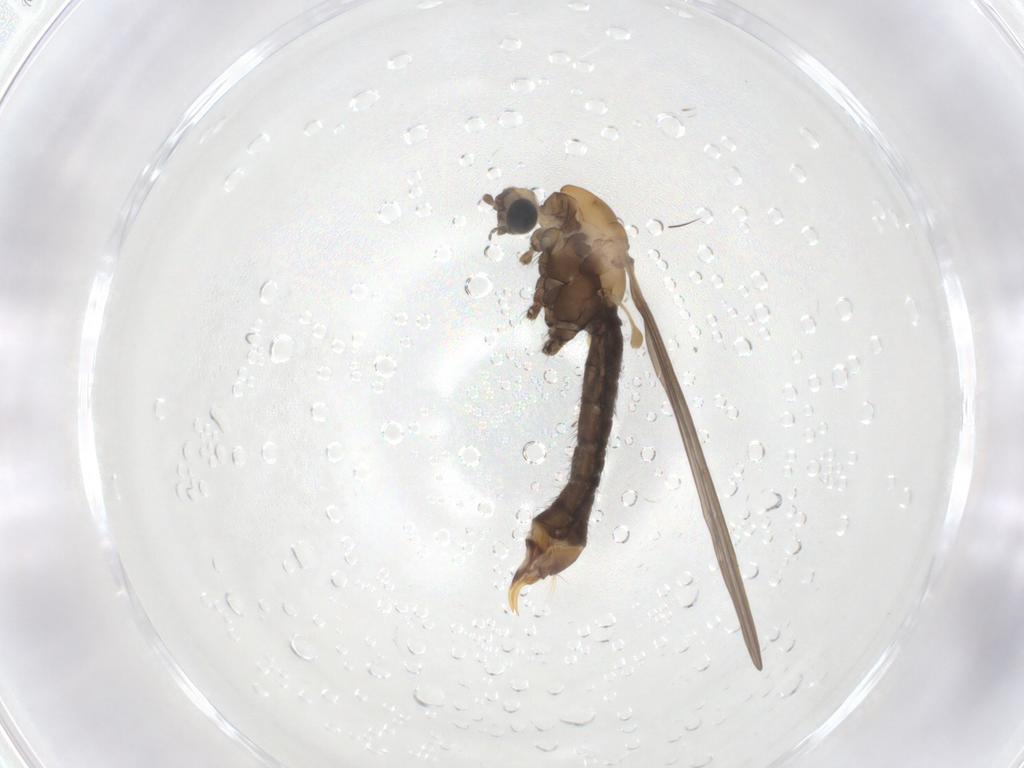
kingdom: Animalia
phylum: Arthropoda
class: Insecta
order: Diptera
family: Limoniidae
